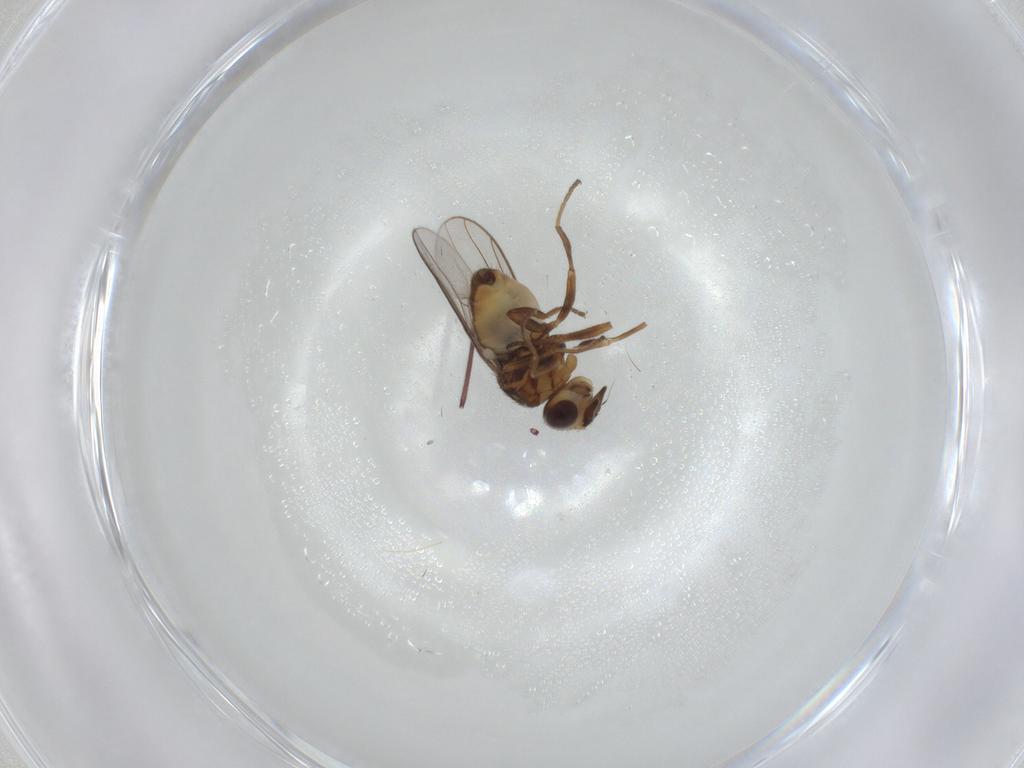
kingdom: Animalia
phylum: Arthropoda
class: Insecta
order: Diptera
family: Chloropidae
